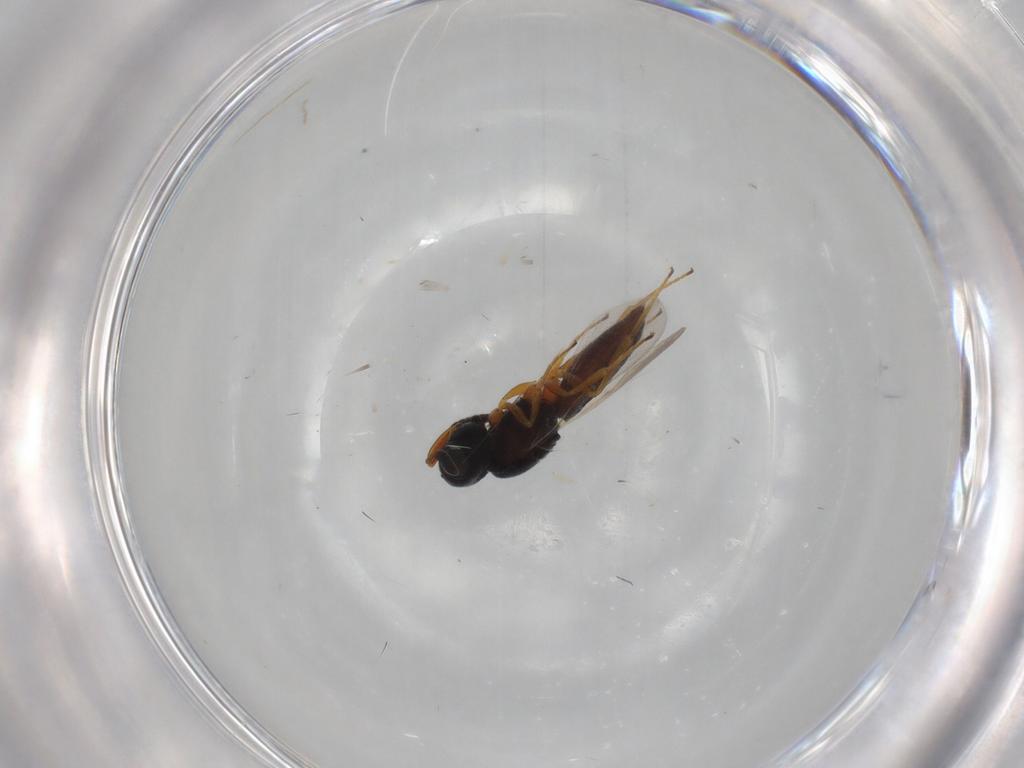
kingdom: Animalia
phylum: Arthropoda
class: Insecta
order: Hymenoptera
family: Scelionidae
